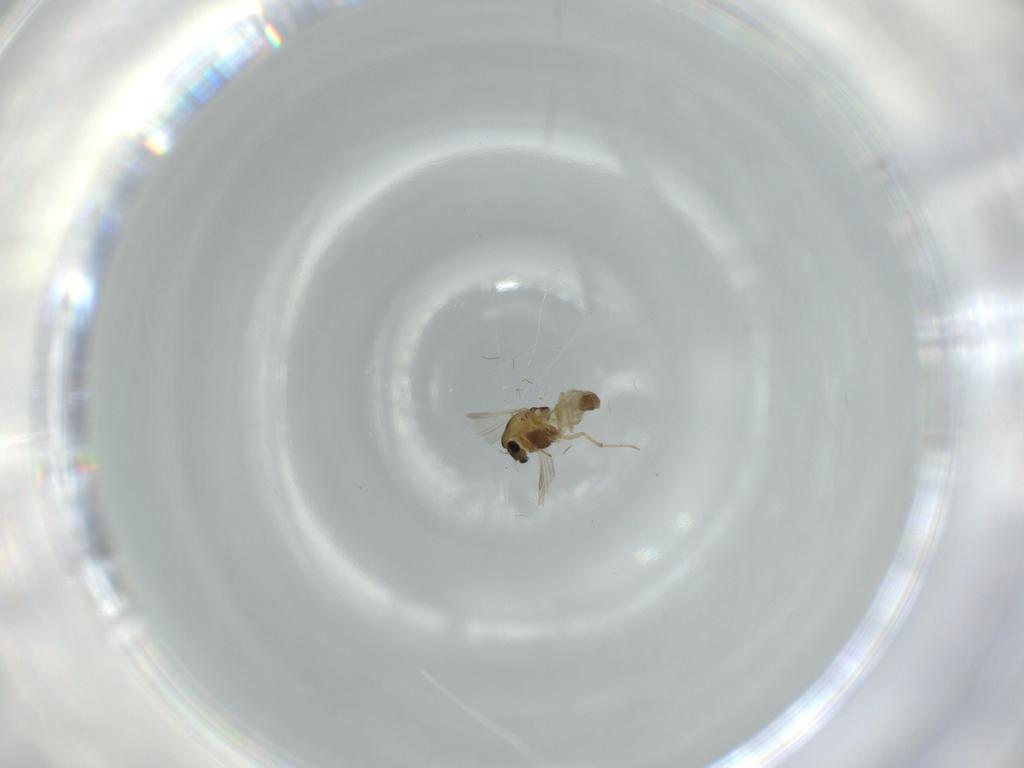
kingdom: Animalia
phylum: Arthropoda
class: Insecta
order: Diptera
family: Chironomidae
